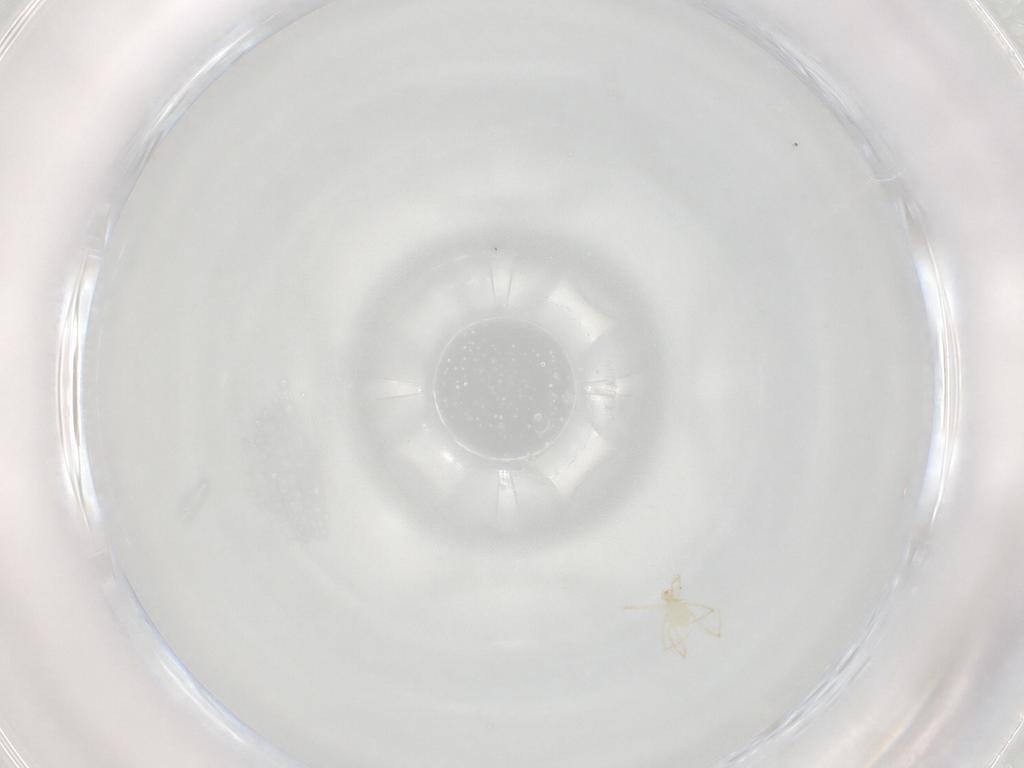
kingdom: Animalia
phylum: Arthropoda
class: Arachnida
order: Trombidiformes
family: Erythraeidae
